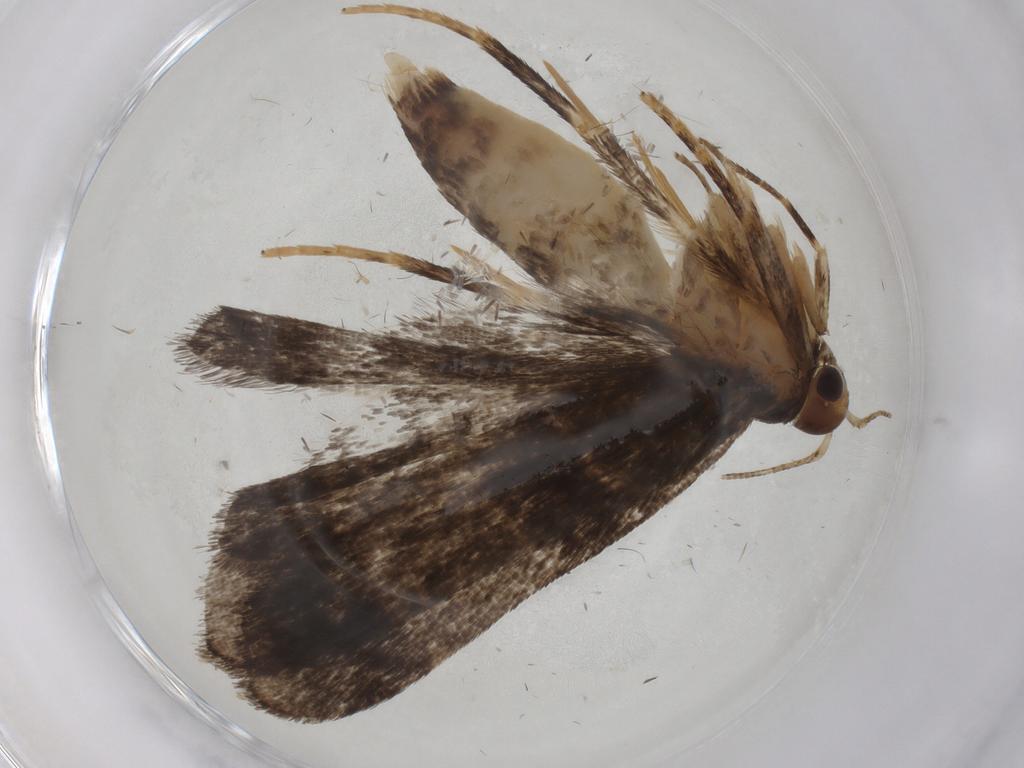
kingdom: Animalia
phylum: Arthropoda
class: Insecta
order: Lepidoptera
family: Gelechiidae
